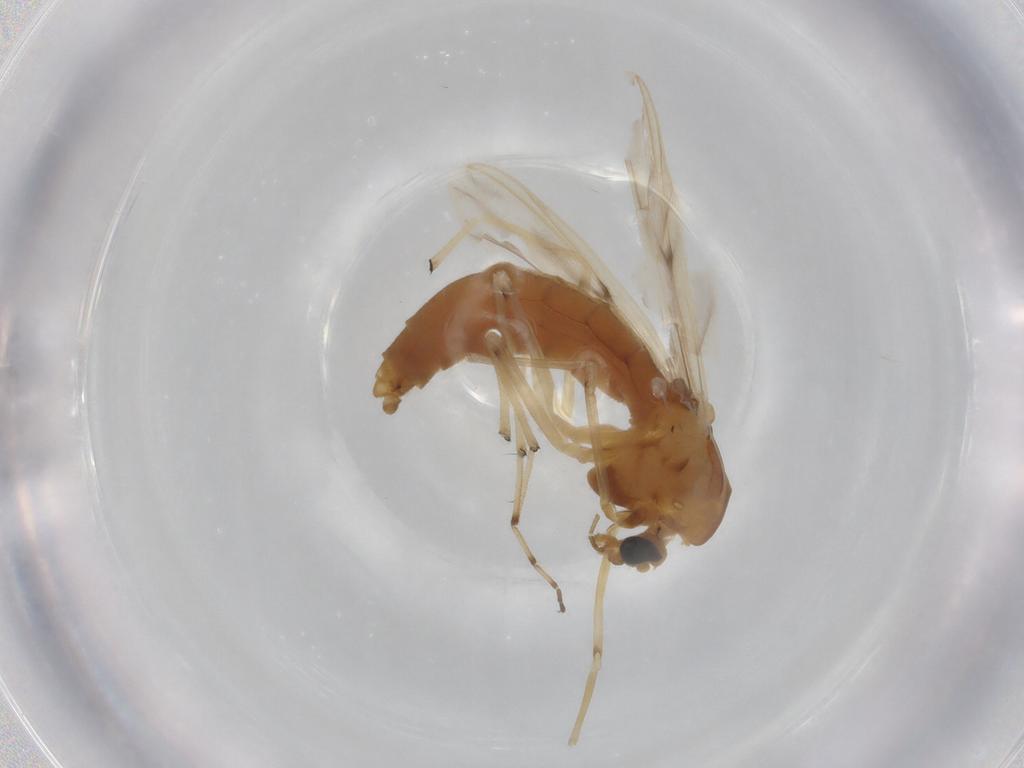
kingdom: Animalia
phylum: Arthropoda
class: Insecta
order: Diptera
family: Chironomidae
